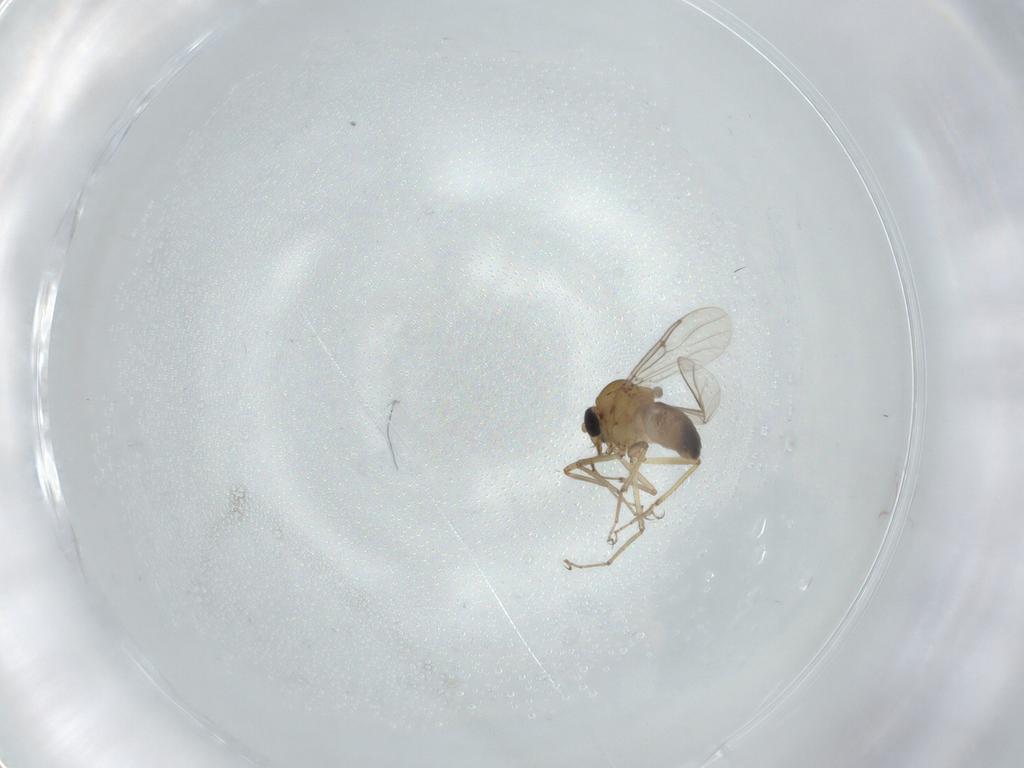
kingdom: Animalia
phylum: Arthropoda
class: Insecta
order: Diptera
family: Ceratopogonidae
